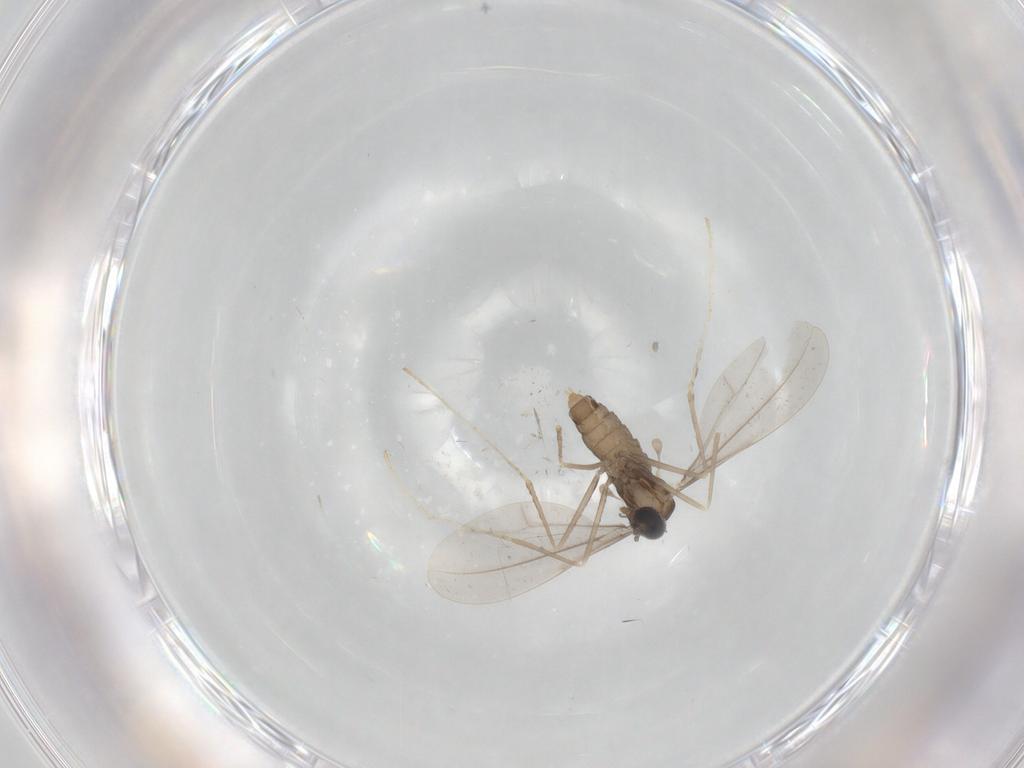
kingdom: Animalia
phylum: Arthropoda
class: Insecta
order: Diptera
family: Cecidomyiidae
